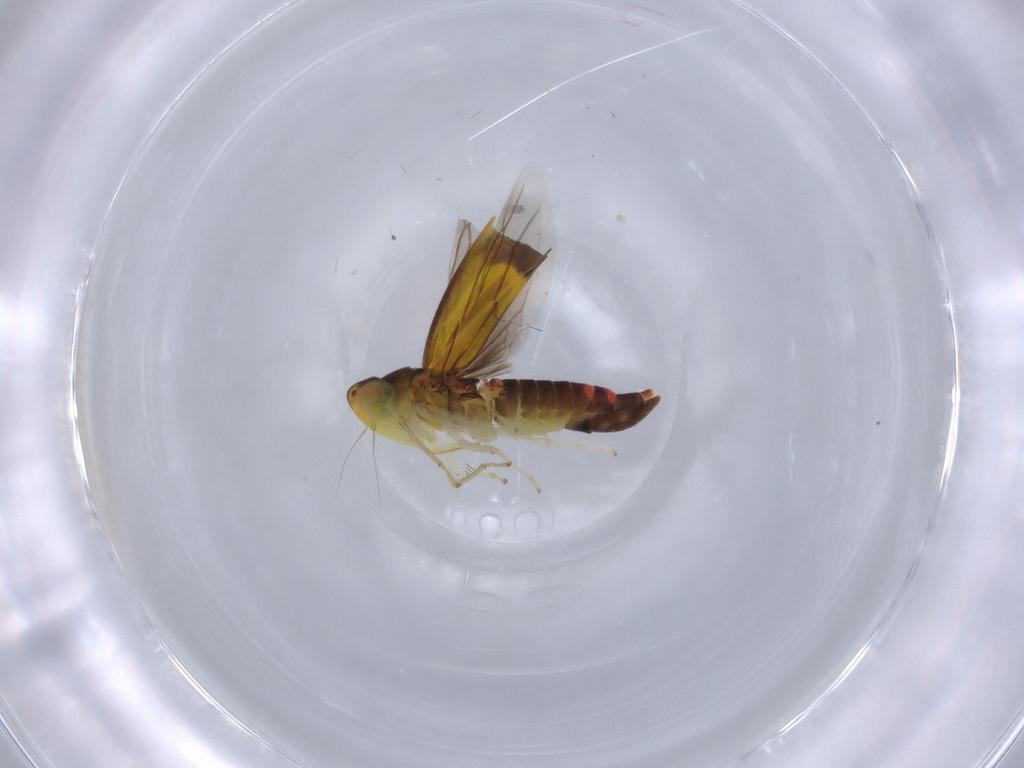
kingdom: Animalia
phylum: Arthropoda
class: Insecta
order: Hemiptera
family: Cicadellidae
